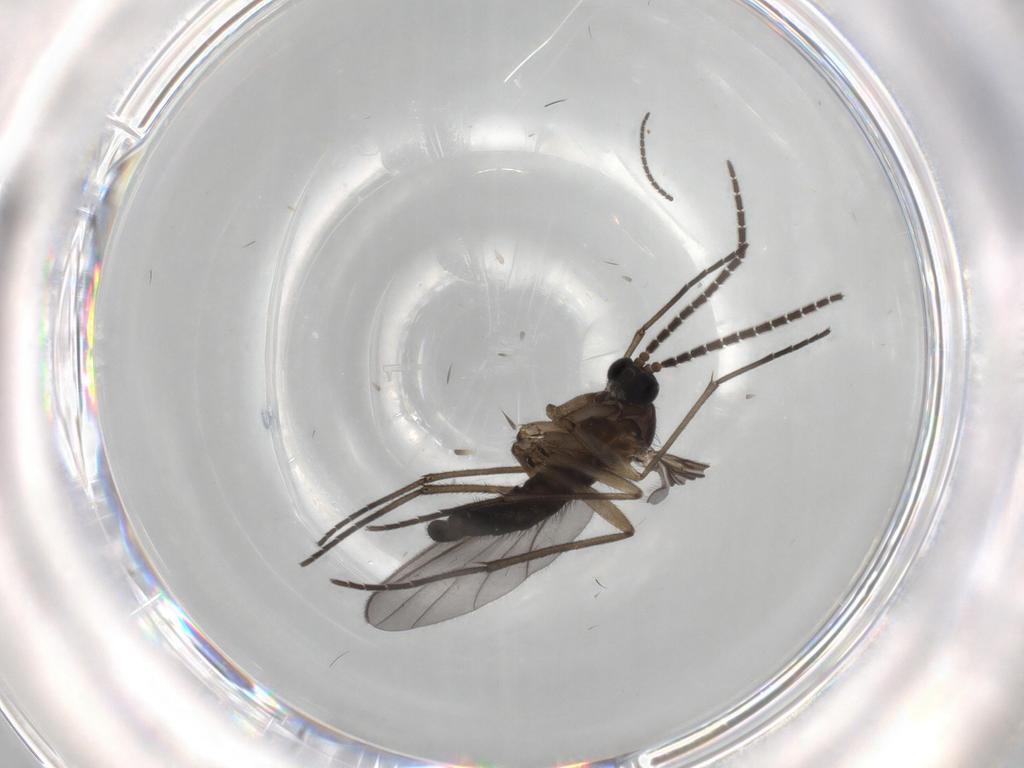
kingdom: Animalia
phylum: Arthropoda
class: Insecta
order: Diptera
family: Sciaridae
